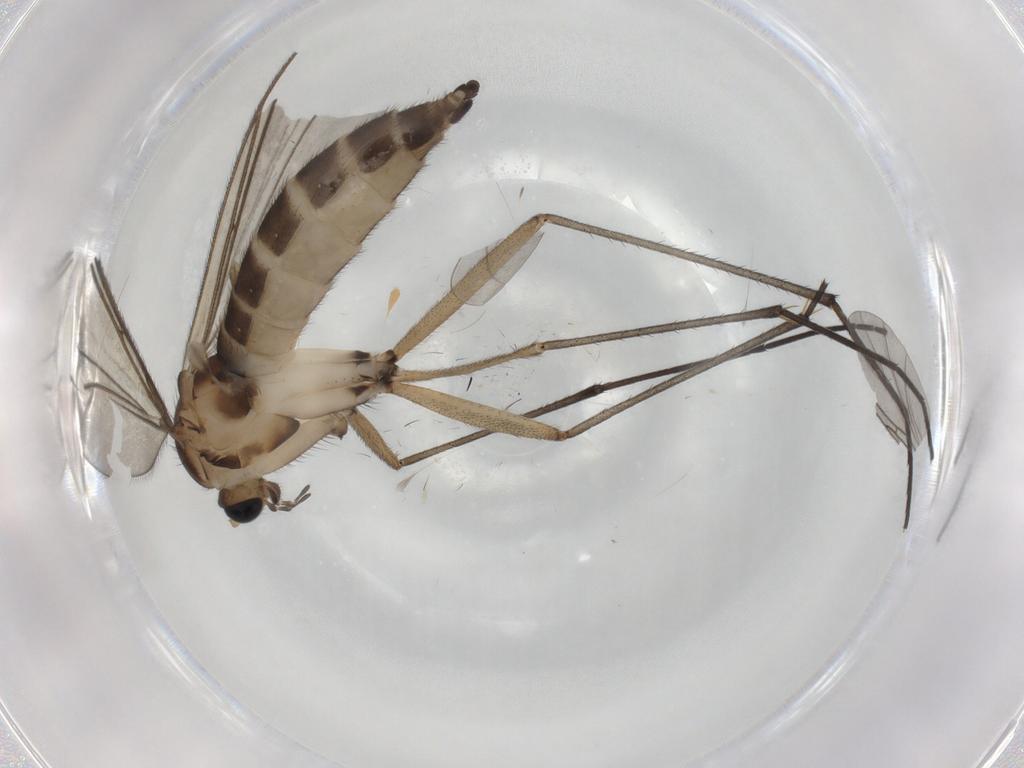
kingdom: Animalia
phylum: Arthropoda
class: Insecta
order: Diptera
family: Sciaridae
